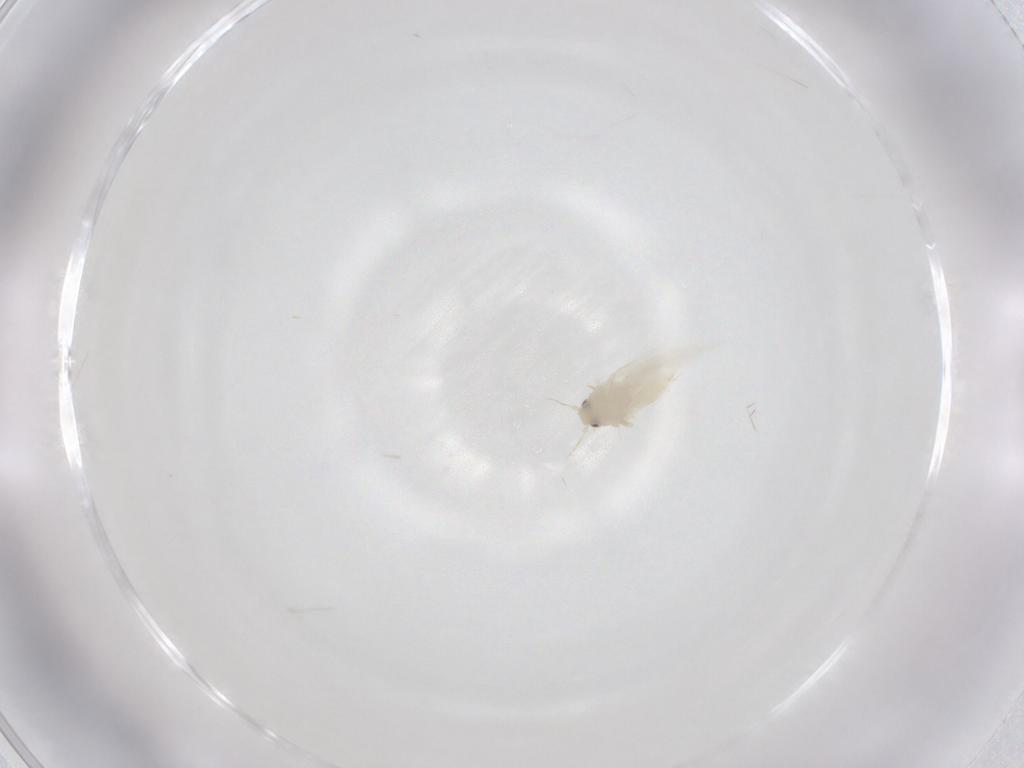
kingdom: Animalia
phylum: Arthropoda
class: Insecta
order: Hemiptera
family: Aleyrodidae
